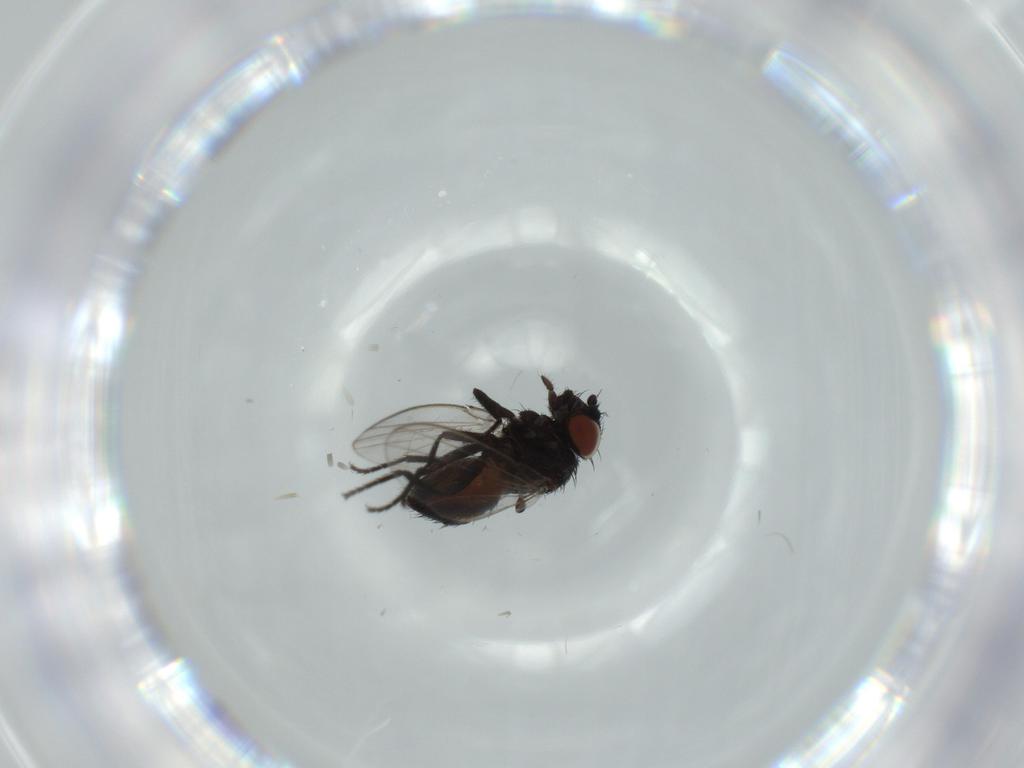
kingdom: Animalia
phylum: Arthropoda
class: Insecta
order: Diptera
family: Milichiidae
